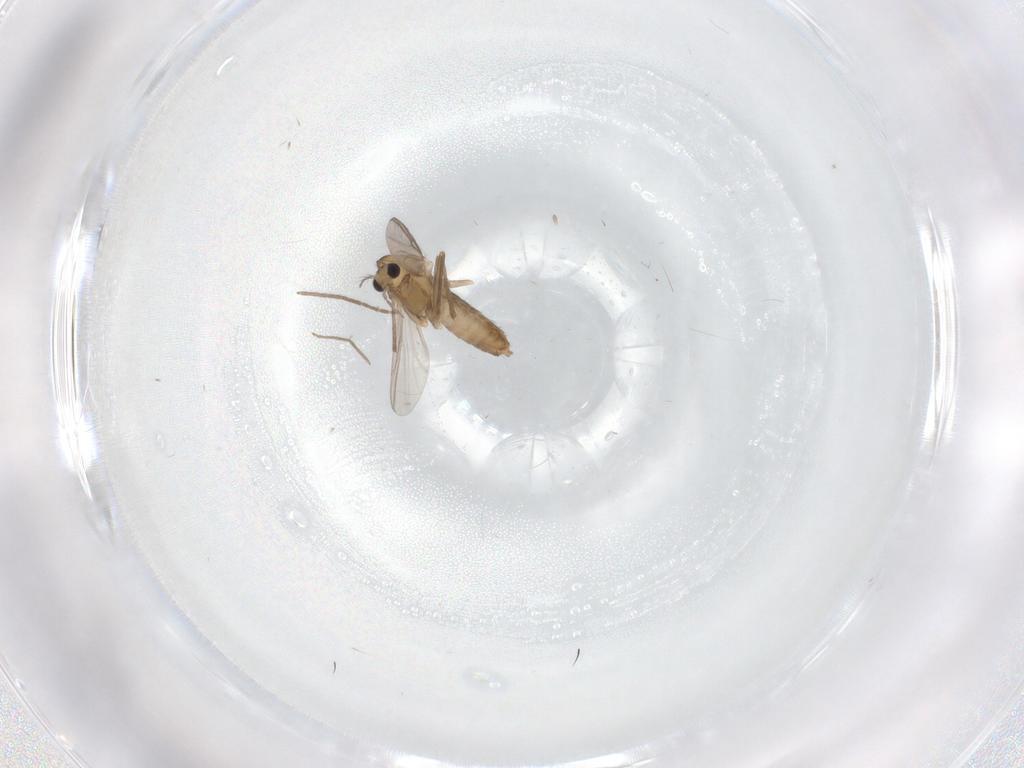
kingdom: Animalia
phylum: Arthropoda
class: Insecta
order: Diptera
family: Chironomidae
